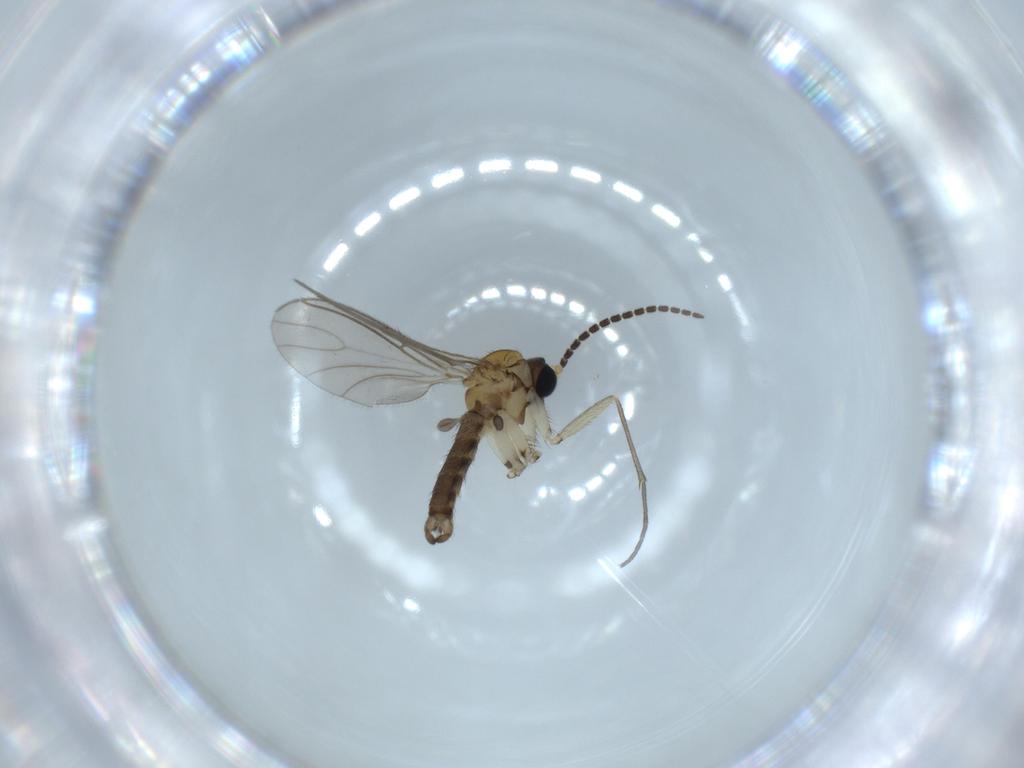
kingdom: Animalia
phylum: Arthropoda
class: Insecta
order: Diptera
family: Sciaridae
